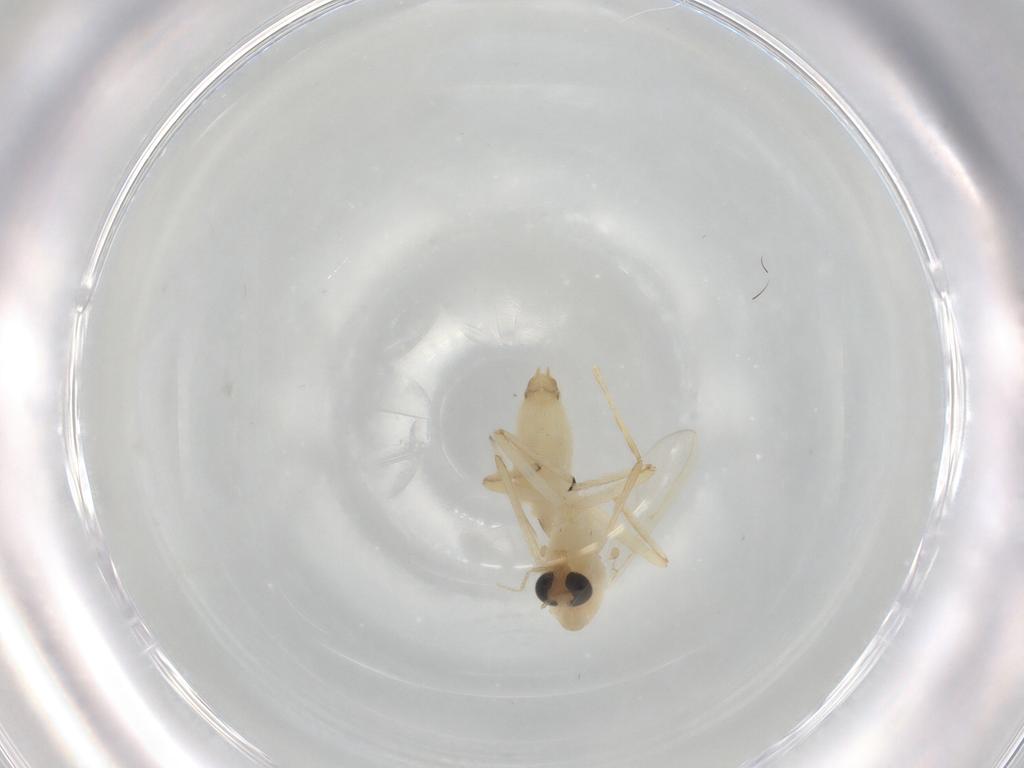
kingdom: Animalia
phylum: Arthropoda
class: Insecta
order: Diptera
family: Chironomidae
